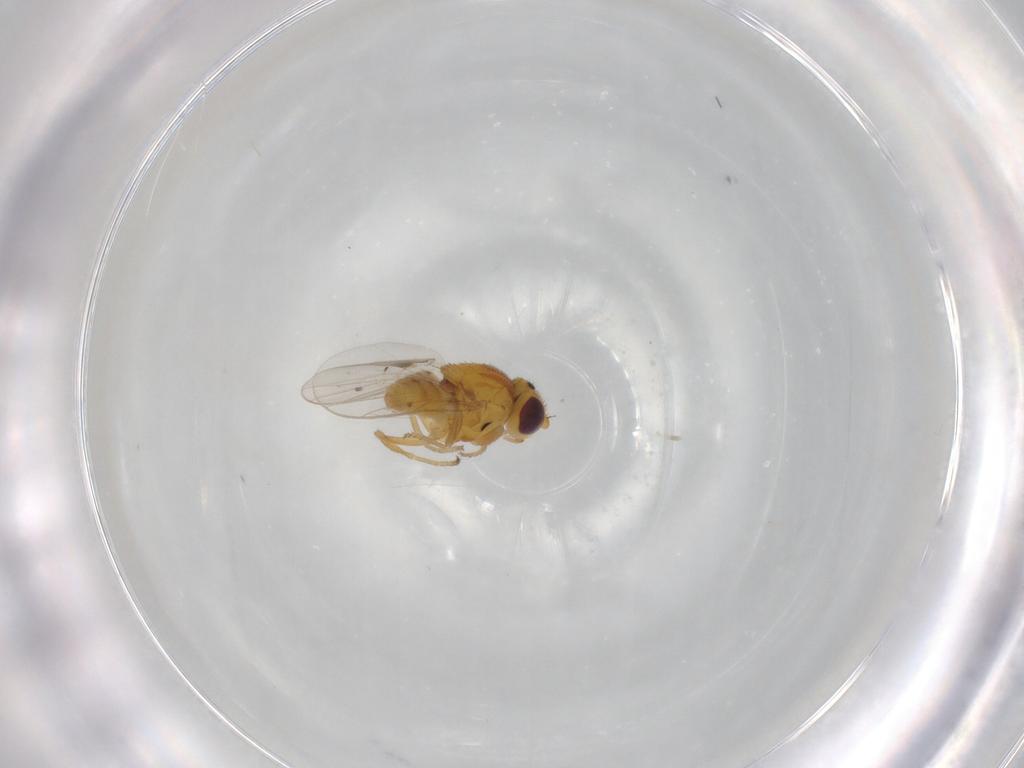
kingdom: Animalia
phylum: Arthropoda
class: Insecta
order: Diptera
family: Chloropidae
